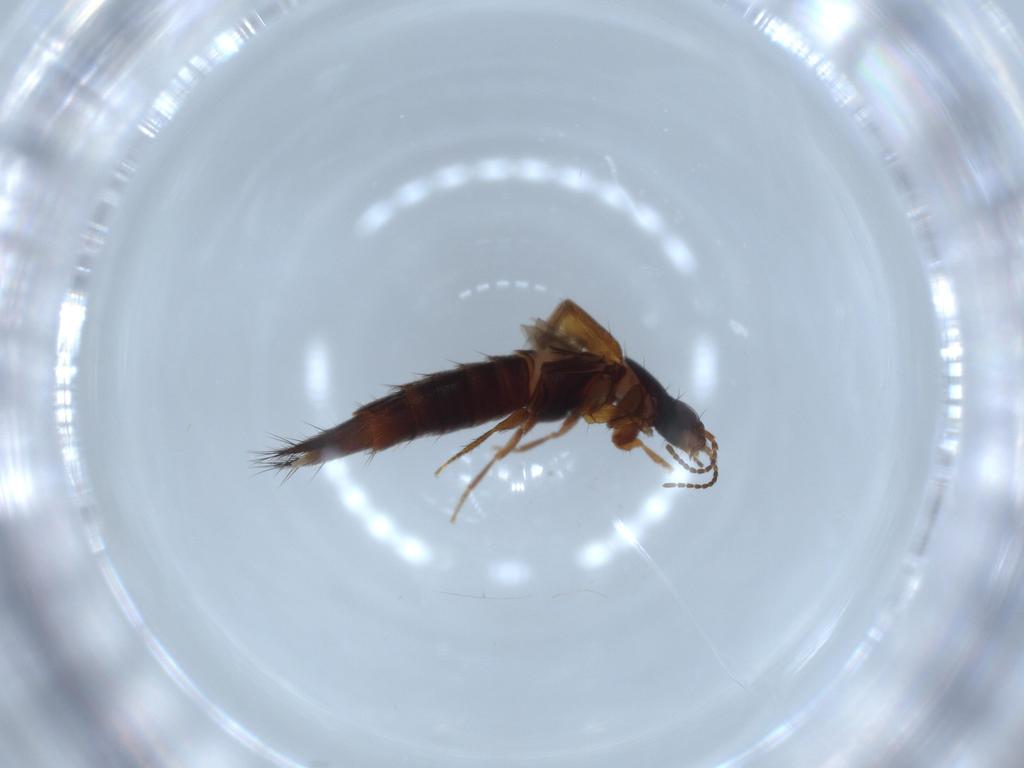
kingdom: Animalia
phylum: Arthropoda
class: Insecta
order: Coleoptera
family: Staphylinidae
